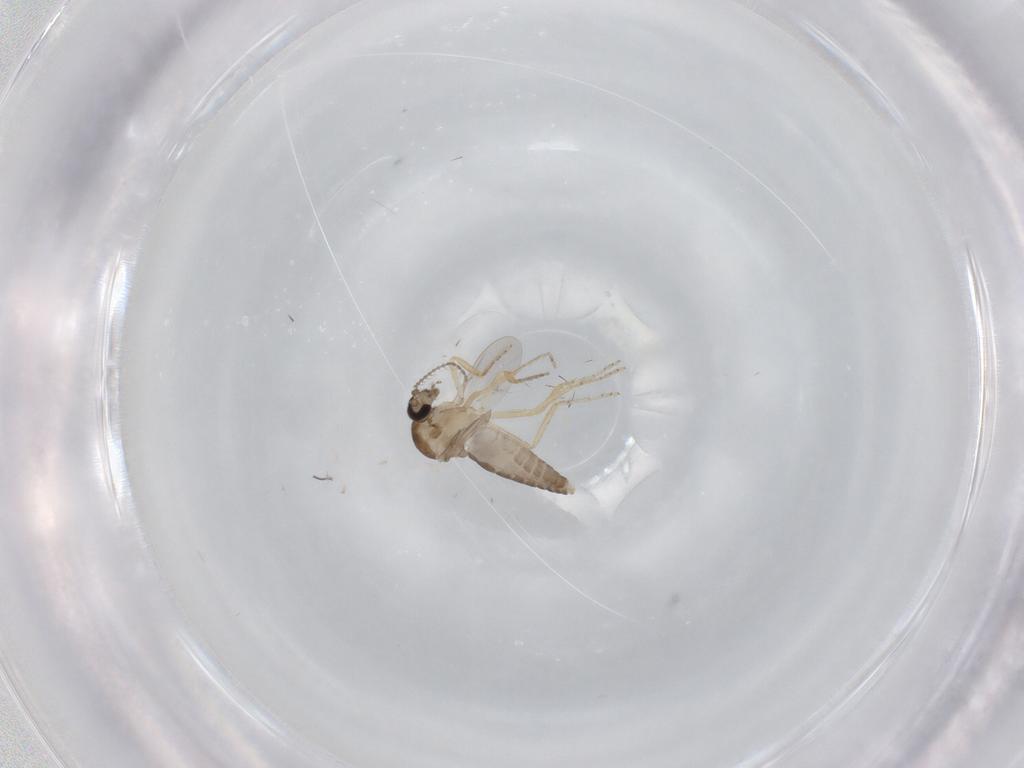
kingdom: Animalia
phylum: Arthropoda
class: Insecta
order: Diptera
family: Ceratopogonidae
